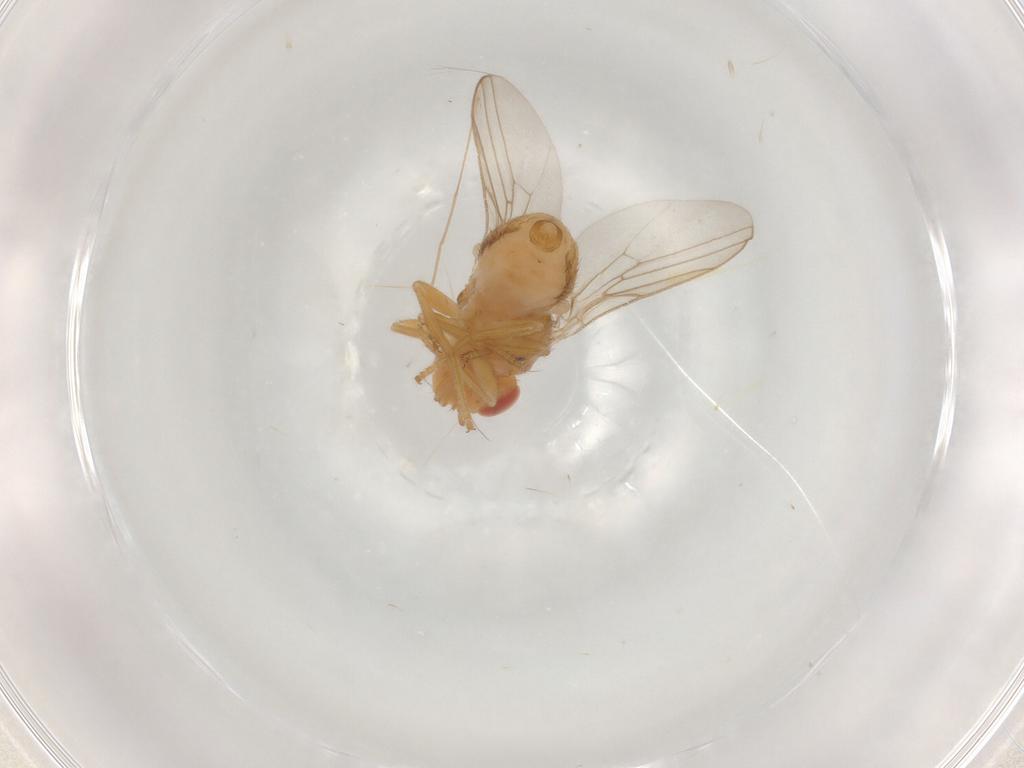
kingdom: Animalia
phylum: Arthropoda
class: Insecta
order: Diptera
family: Chloropidae
